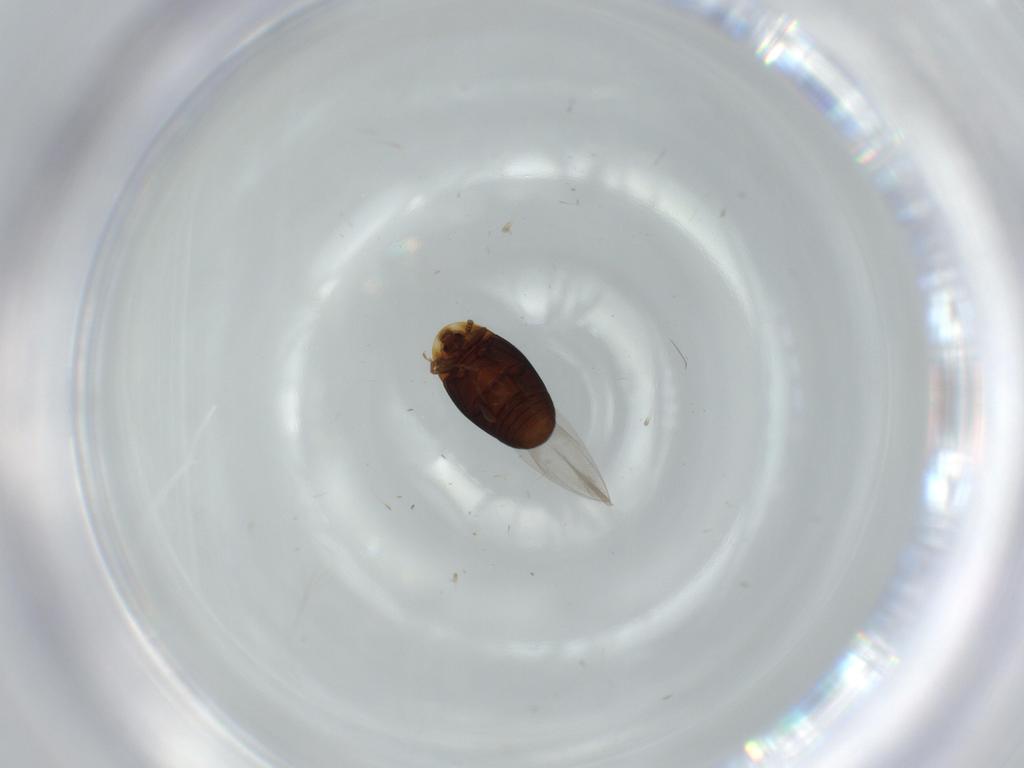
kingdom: Animalia
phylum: Arthropoda
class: Insecta
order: Coleoptera
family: Corylophidae
